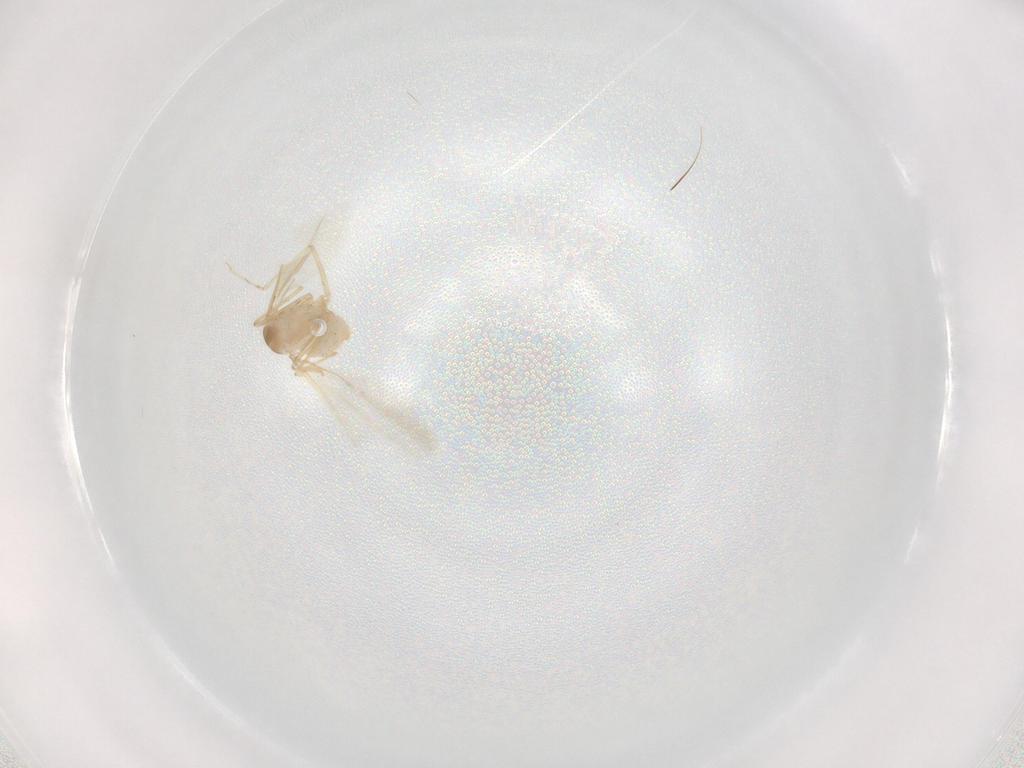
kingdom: Animalia
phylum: Arthropoda
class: Insecta
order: Diptera
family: Cecidomyiidae
